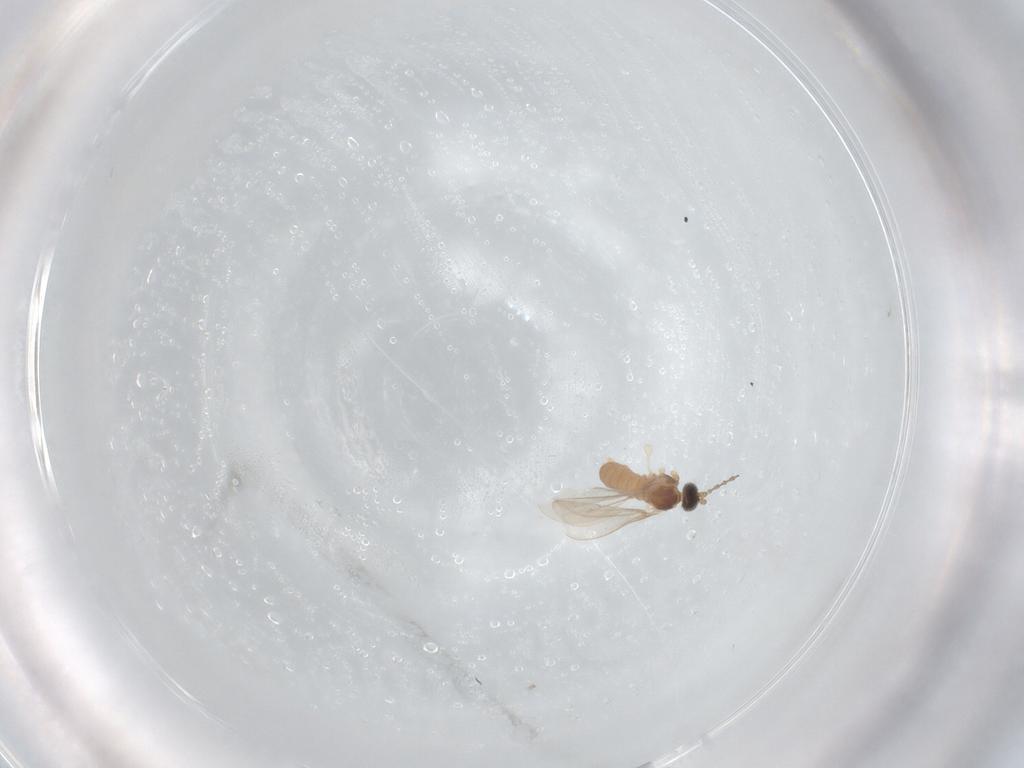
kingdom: Animalia
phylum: Arthropoda
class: Insecta
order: Diptera
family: Cecidomyiidae
